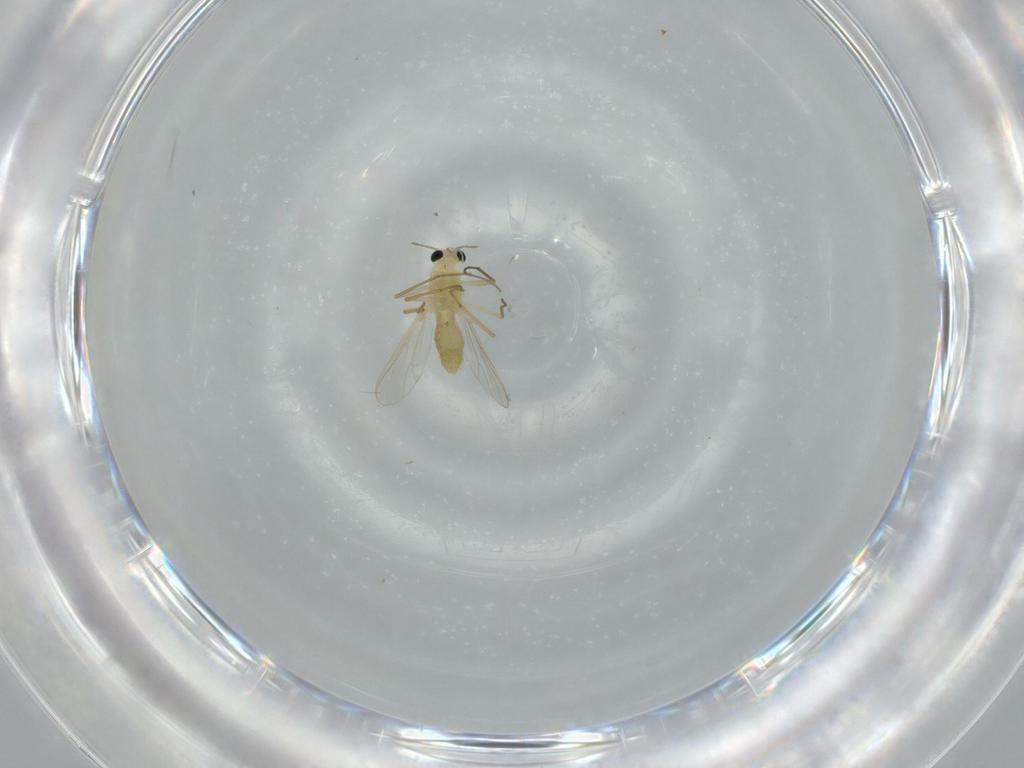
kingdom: Animalia
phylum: Arthropoda
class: Insecta
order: Diptera
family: Chironomidae
